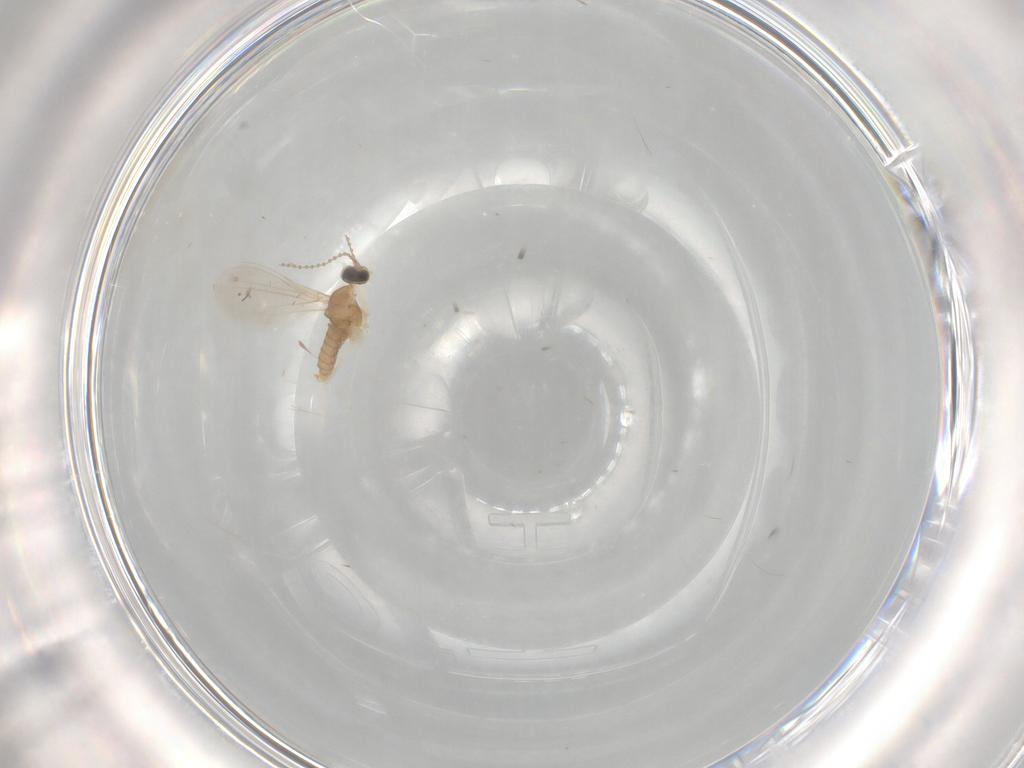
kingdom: Animalia
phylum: Arthropoda
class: Insecta
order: Diptera
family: Cecidomyiidae
